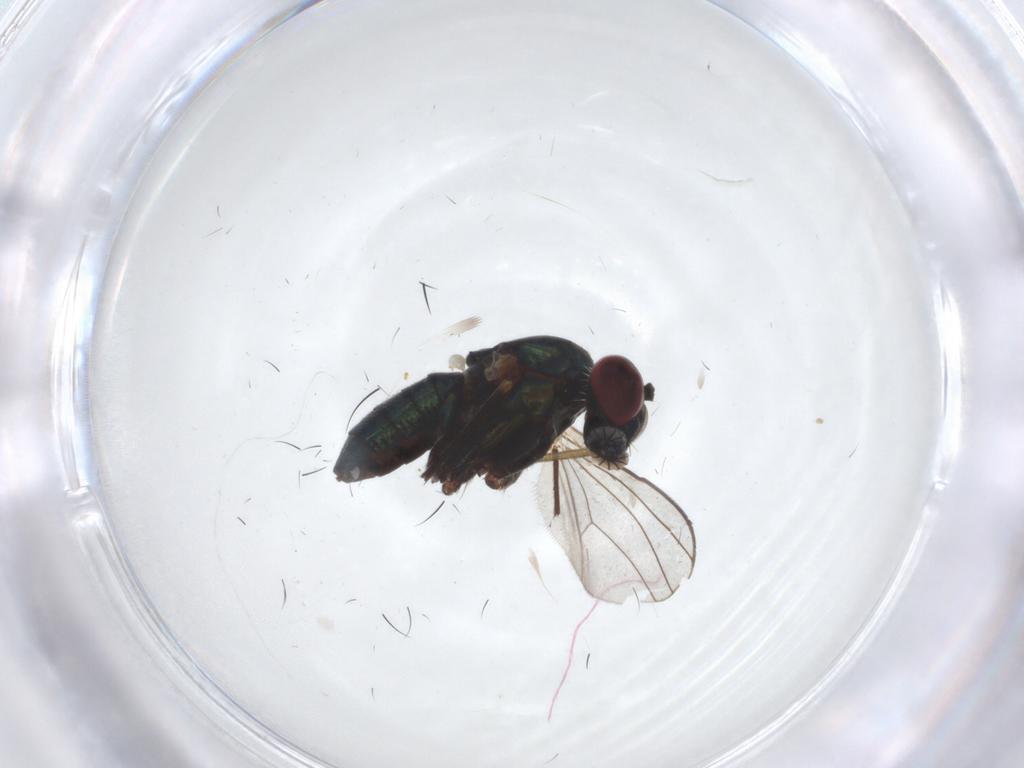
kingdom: Animalia
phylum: Arthropoda
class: Insecta
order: Diptera
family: Dolichopodidae
